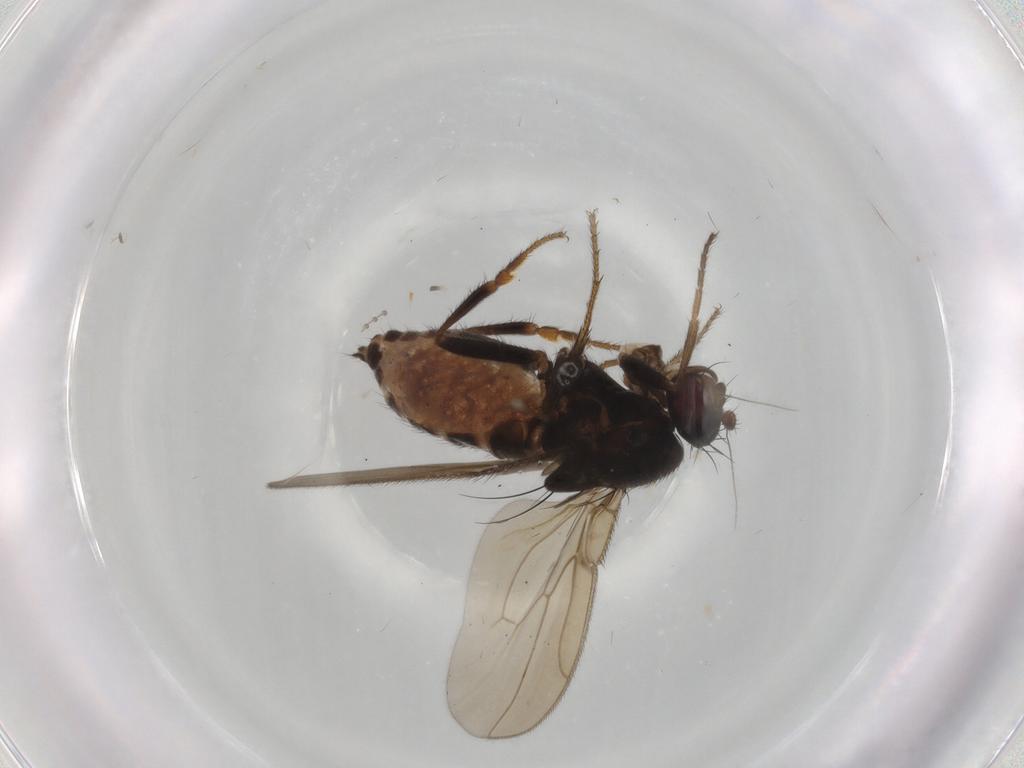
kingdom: Animalia
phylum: Arthropoda
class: Insecta
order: Diptera
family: Sphaeroceridae
